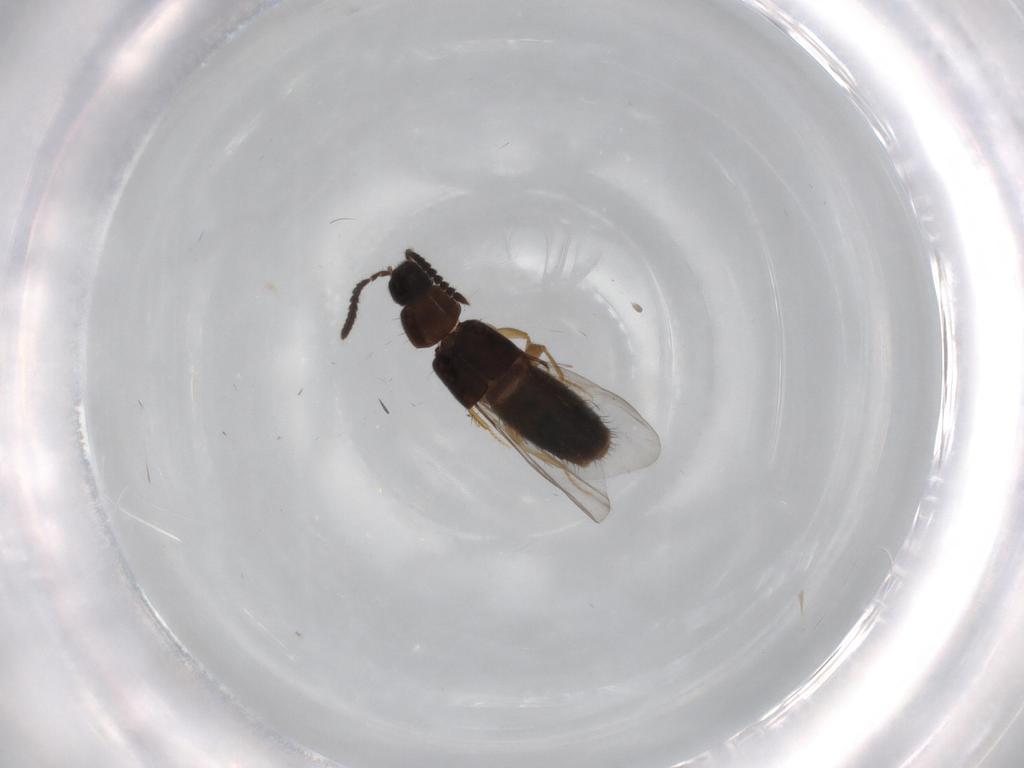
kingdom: Animalia
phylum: Arthropoda
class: Insecta
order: Coleoptera
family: Staphylinidae
